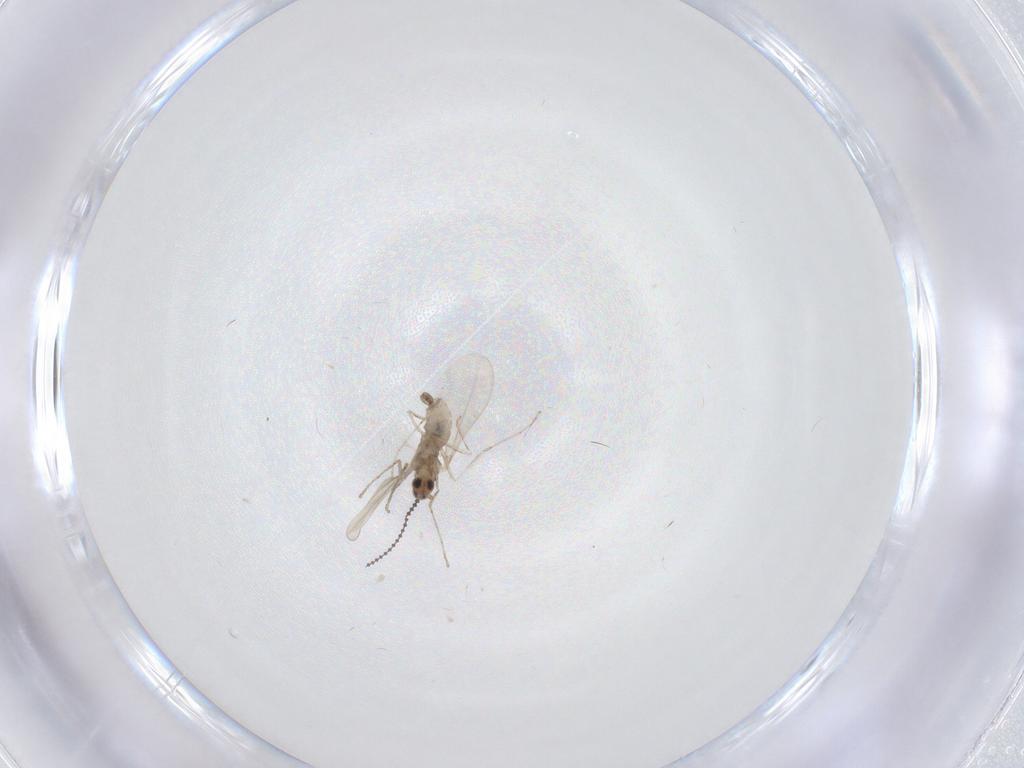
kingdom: Animalia
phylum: Arthropoda
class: Insecta
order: Diptera
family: Cecidomyiidae
